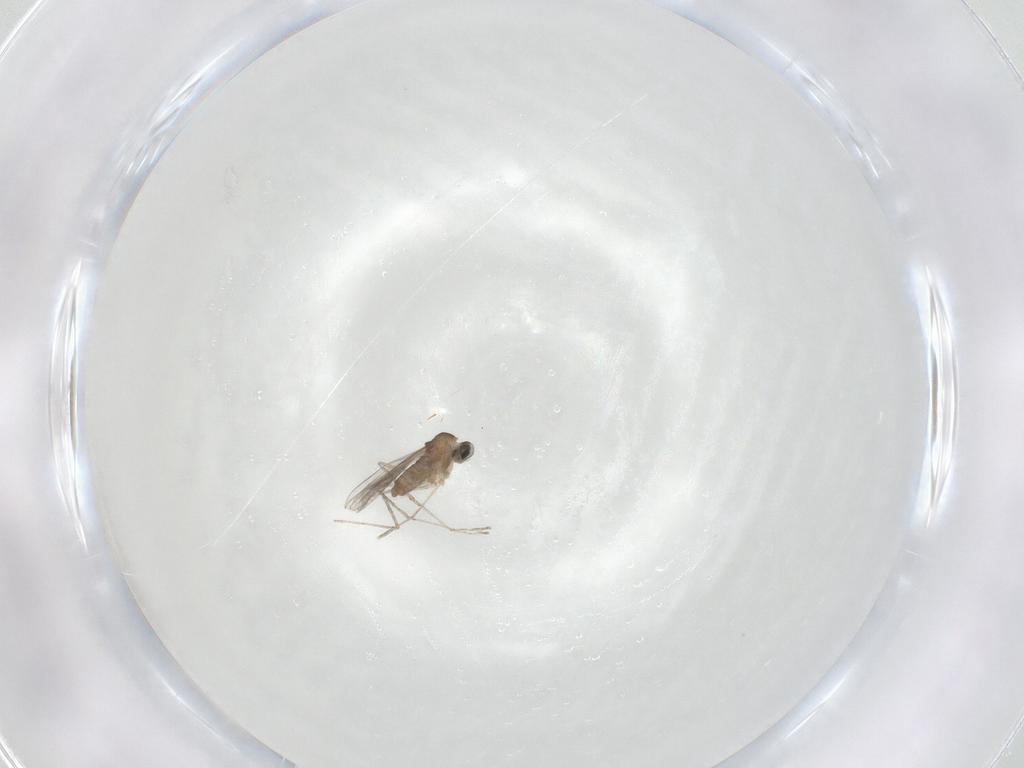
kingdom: Animalia
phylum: Arthropoda
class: Insecta
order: Diptera
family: Cecidomyiidae
